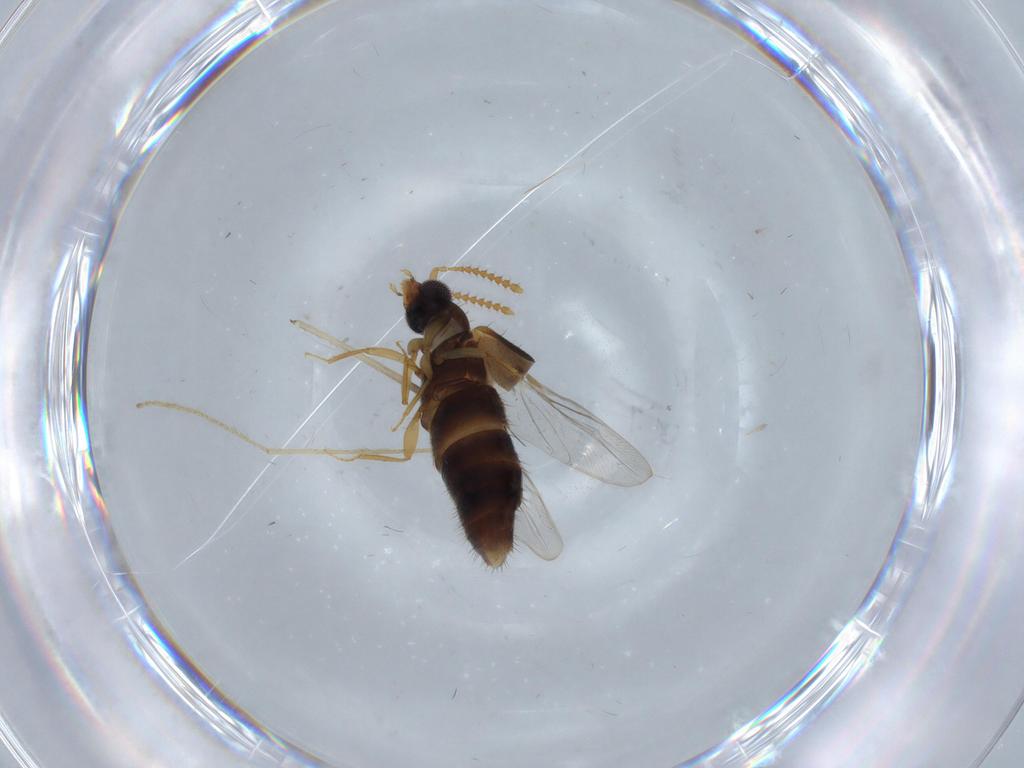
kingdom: Animalia
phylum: Arthropoda
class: Insecta
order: Coleoptera
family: Staphylinidae
